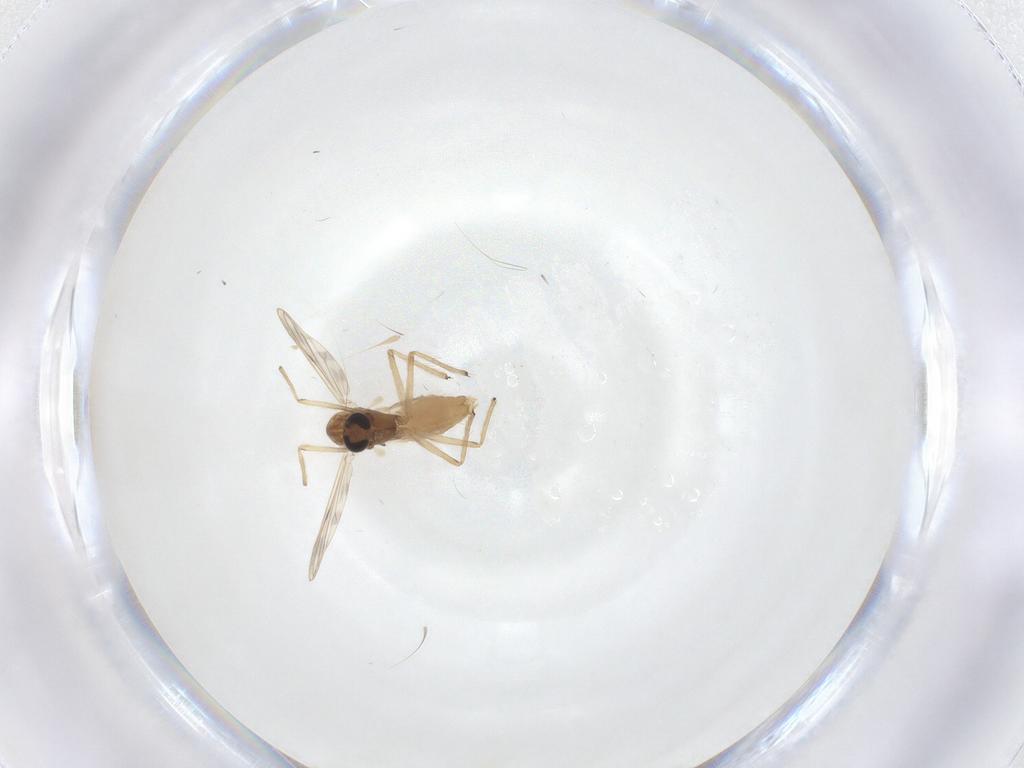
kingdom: Animalia
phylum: Arthropoda
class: Insecta
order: Diptera
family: Chironomidae
